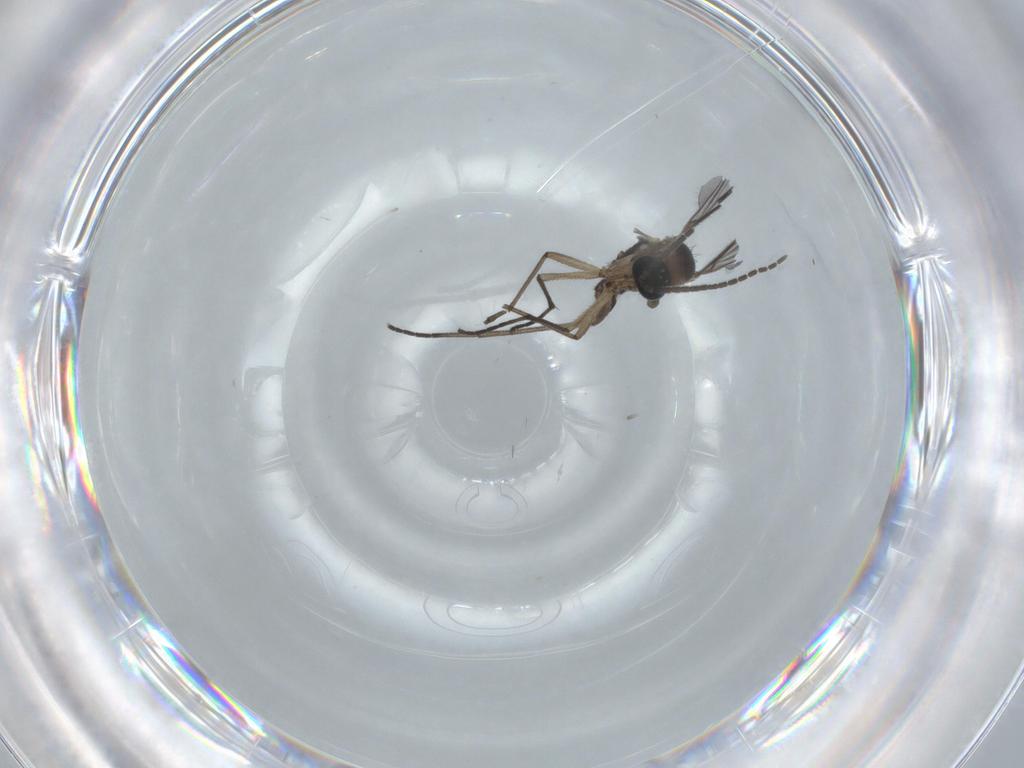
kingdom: Animalia
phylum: Arthropoda
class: Insecta
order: Diptera
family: Sciaridae
